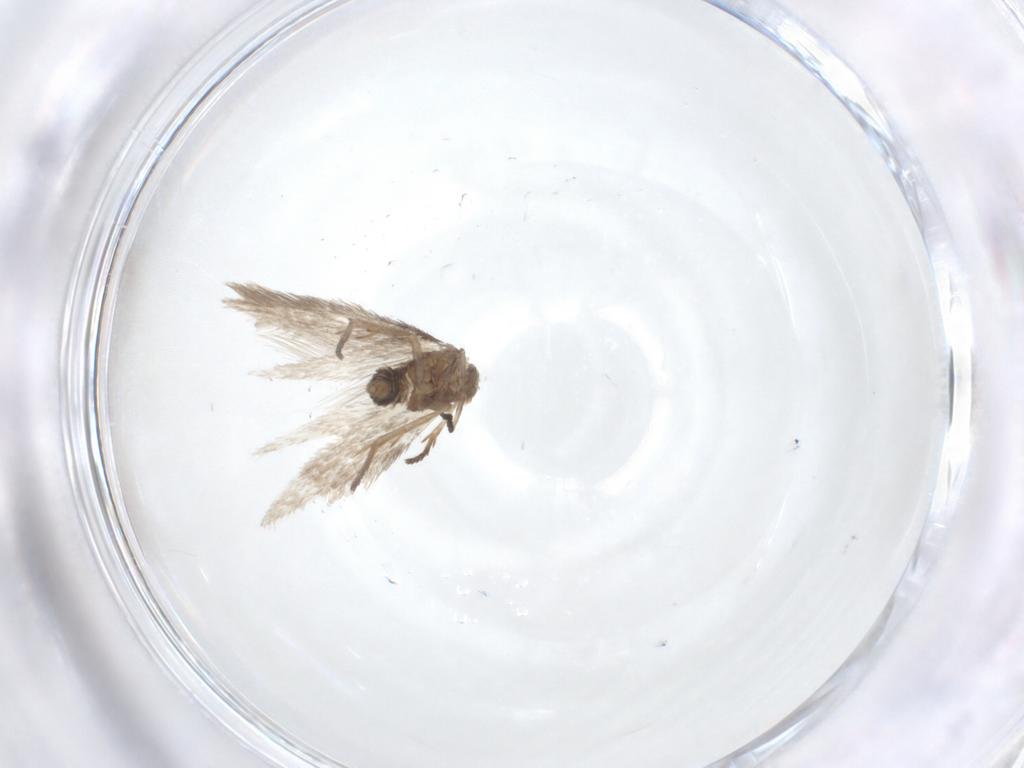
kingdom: Animalia
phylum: Arthropoda
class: Insecta
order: Lepidoptera
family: Nepticulidae
